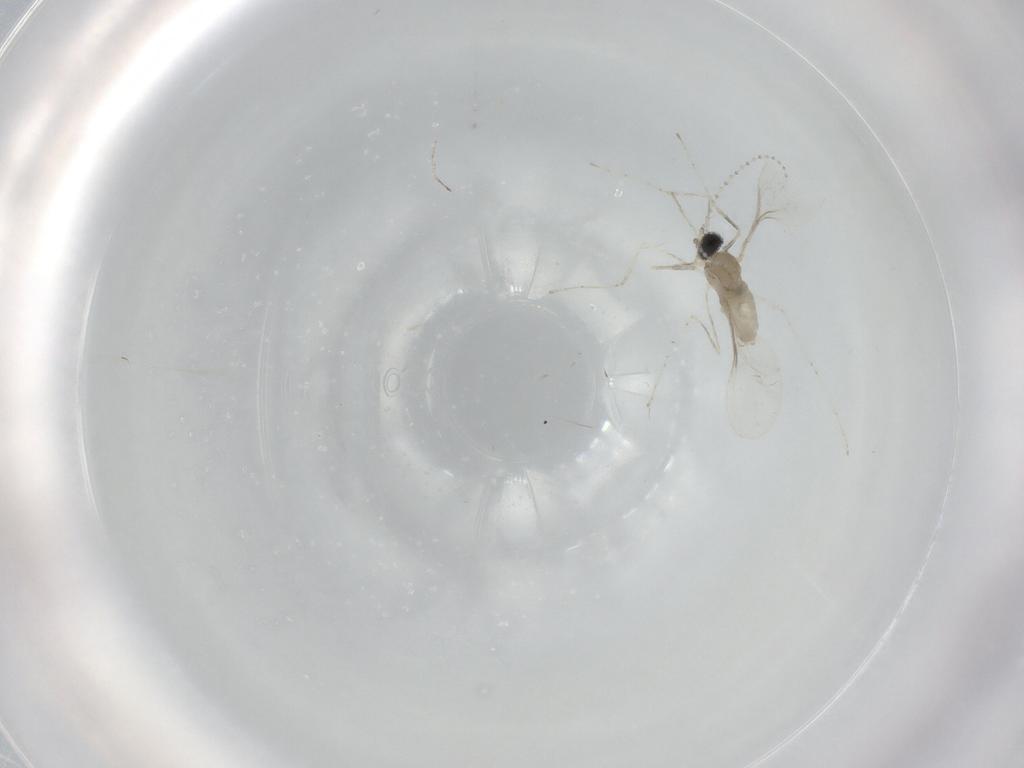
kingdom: Animalia
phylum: Arthropoda
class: Insecta
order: Diptera
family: Cecidomyiidae
